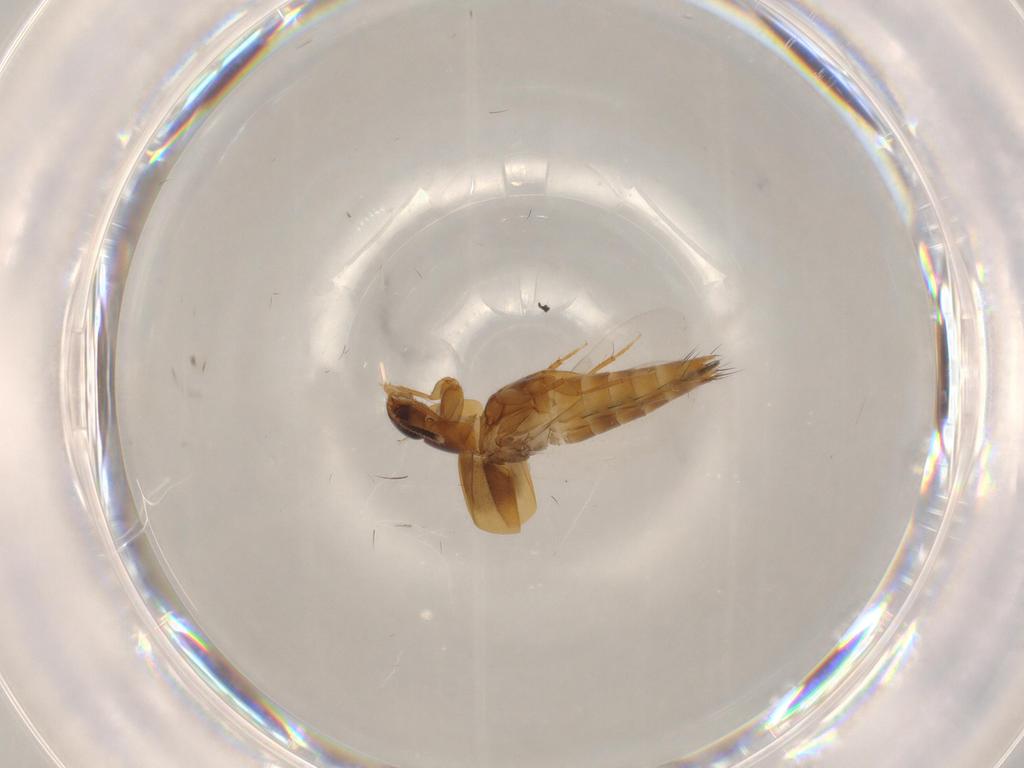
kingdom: Animalia
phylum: Arthropoda
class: Insecta
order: Coleoptera
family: Staphylinidae
